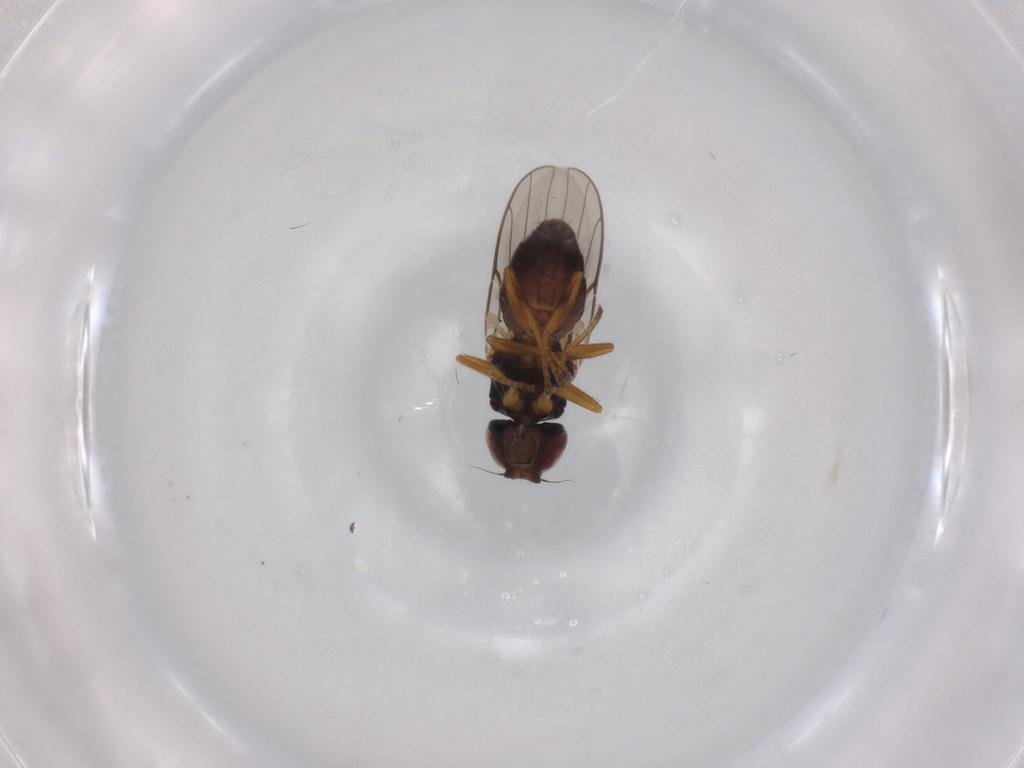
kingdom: Animalia
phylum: Arthropoda
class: Insecta
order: Diptera
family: Chloropidae
